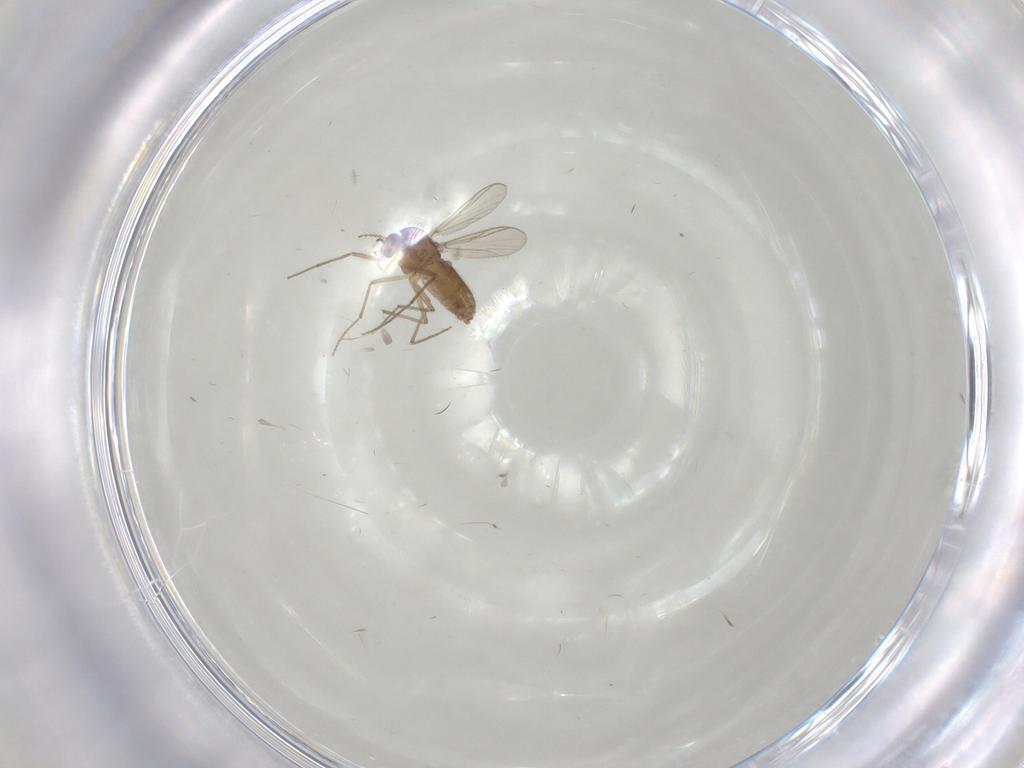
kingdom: Animalia
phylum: Arthropoda
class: Insecta
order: Diptera
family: Chironomidae
